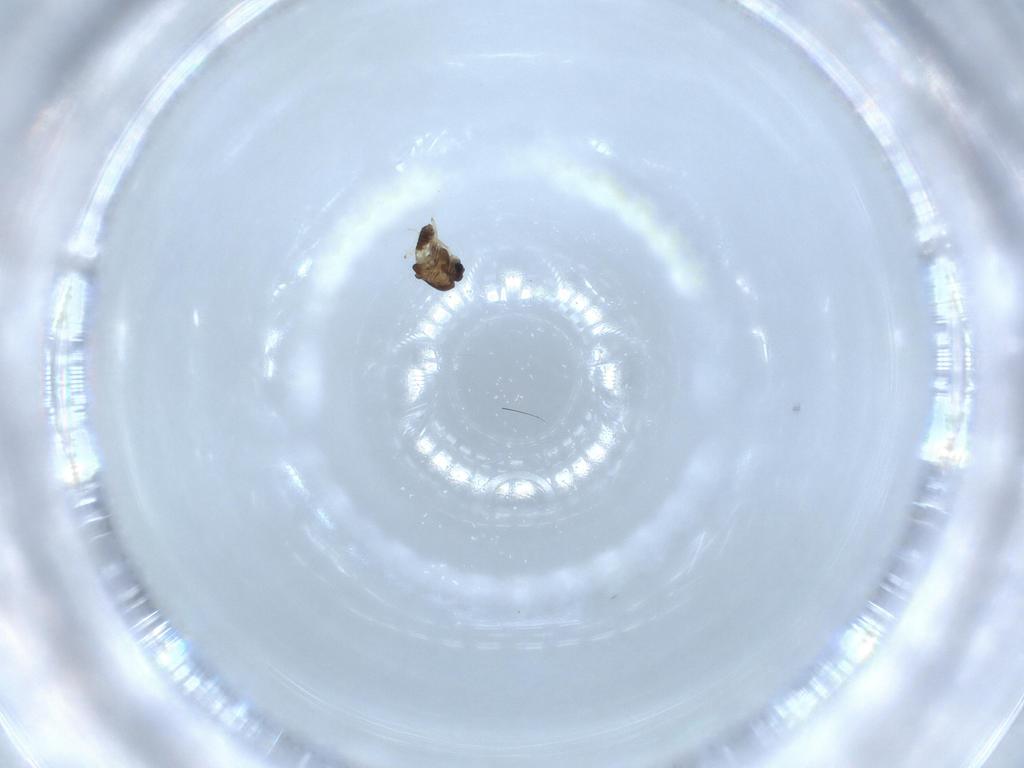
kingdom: Animalia
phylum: Arthropoda
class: Insecta
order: Diptera
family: Chironomidae
